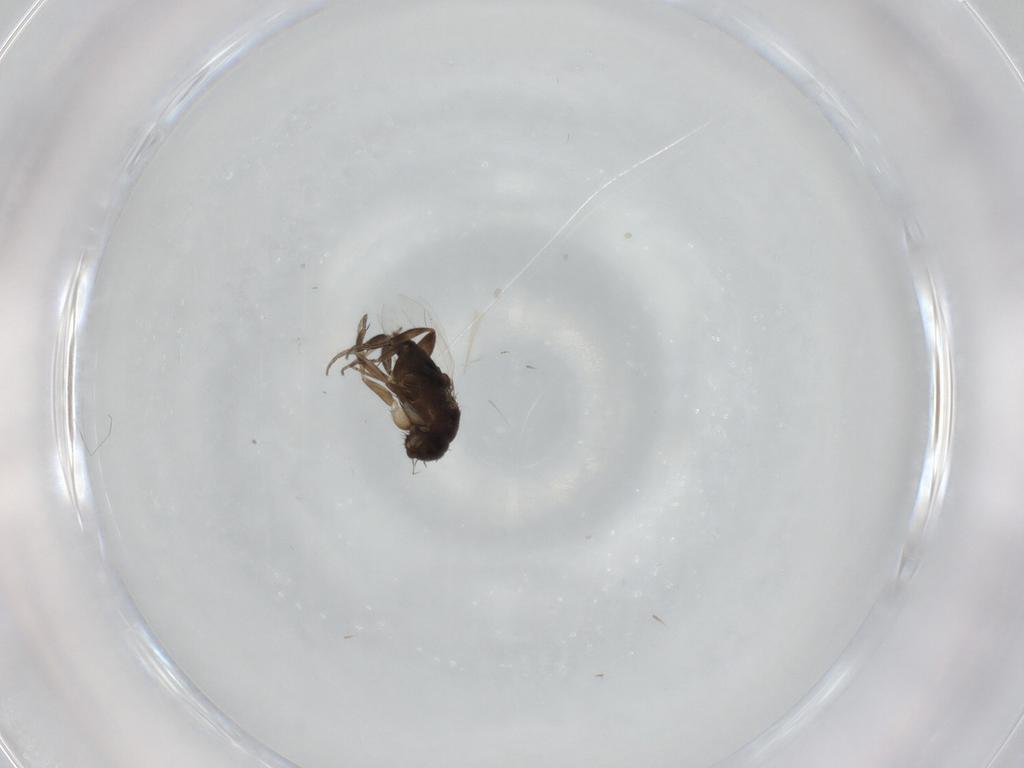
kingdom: Animalia
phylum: Arthropoda
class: Insecta
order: Diptera
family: Phoridae
